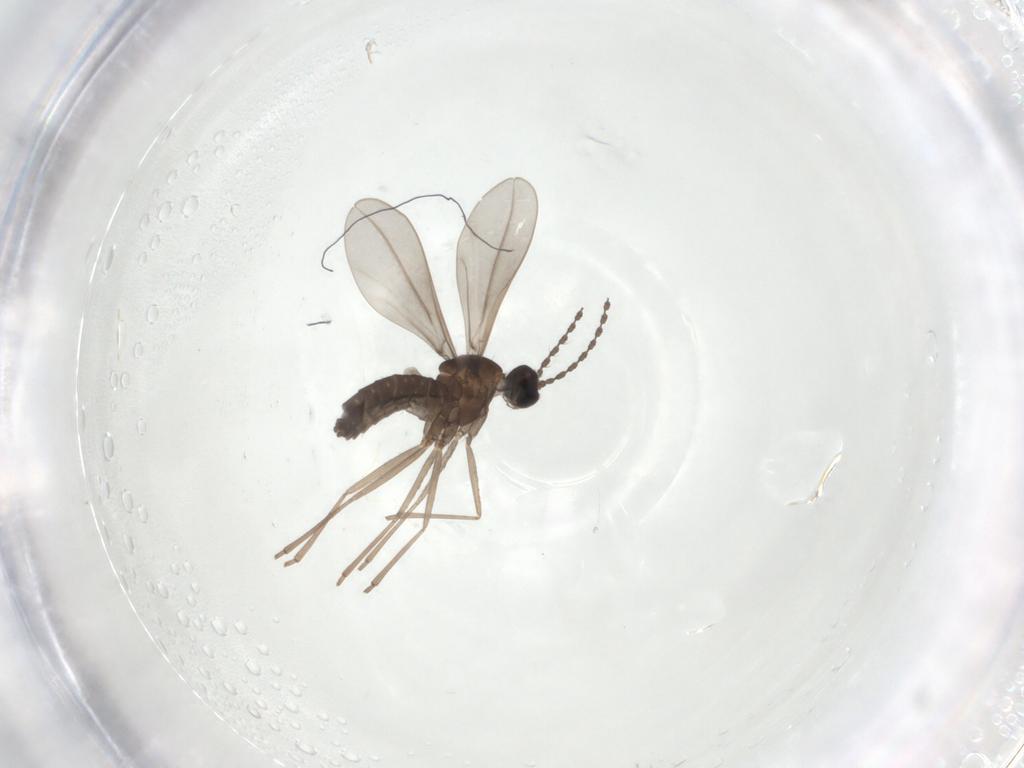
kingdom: Animalia
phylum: Arthropoda
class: Insecta
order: Diptera
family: Cecidomyiidae
